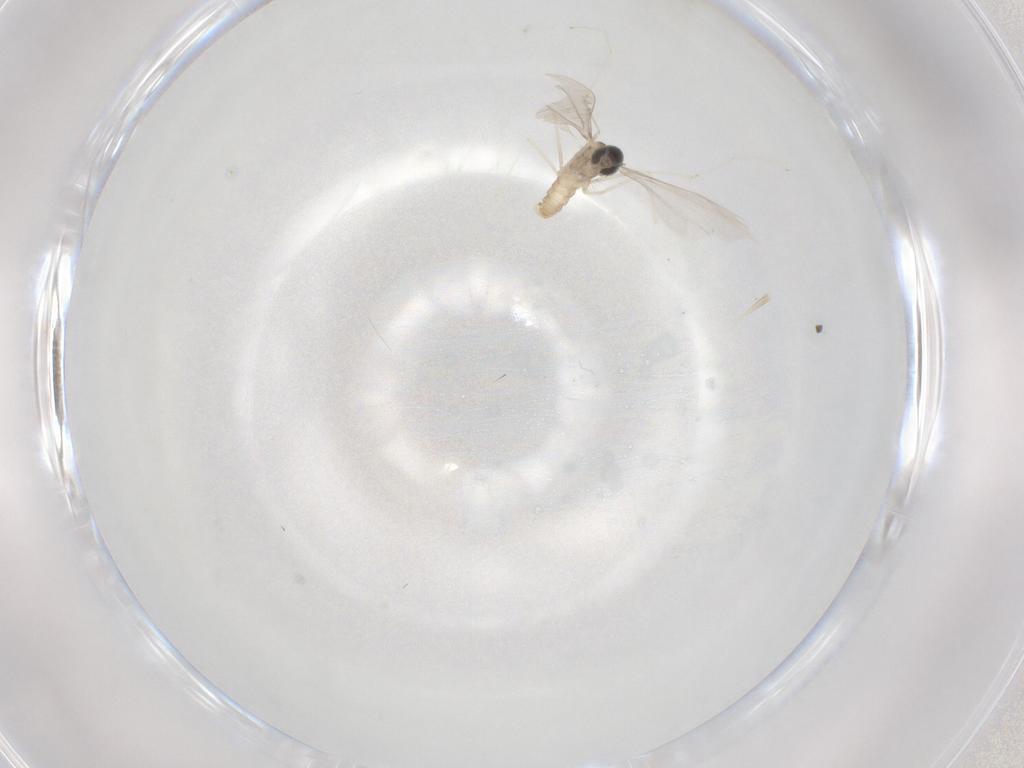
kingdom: Animalia
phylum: Arthropoda
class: Insecta
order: Diptera
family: Cecidomyiidae
